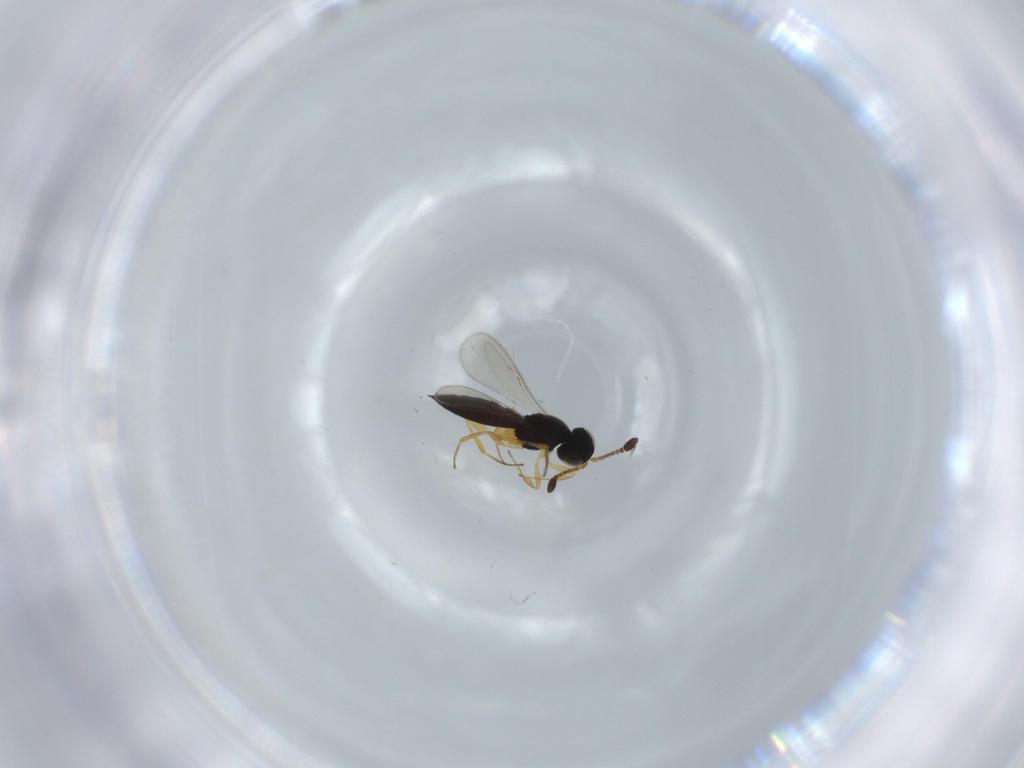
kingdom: Animalia
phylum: Arthropoda
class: Insecta
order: Hymenoptera
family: Scelionidae
